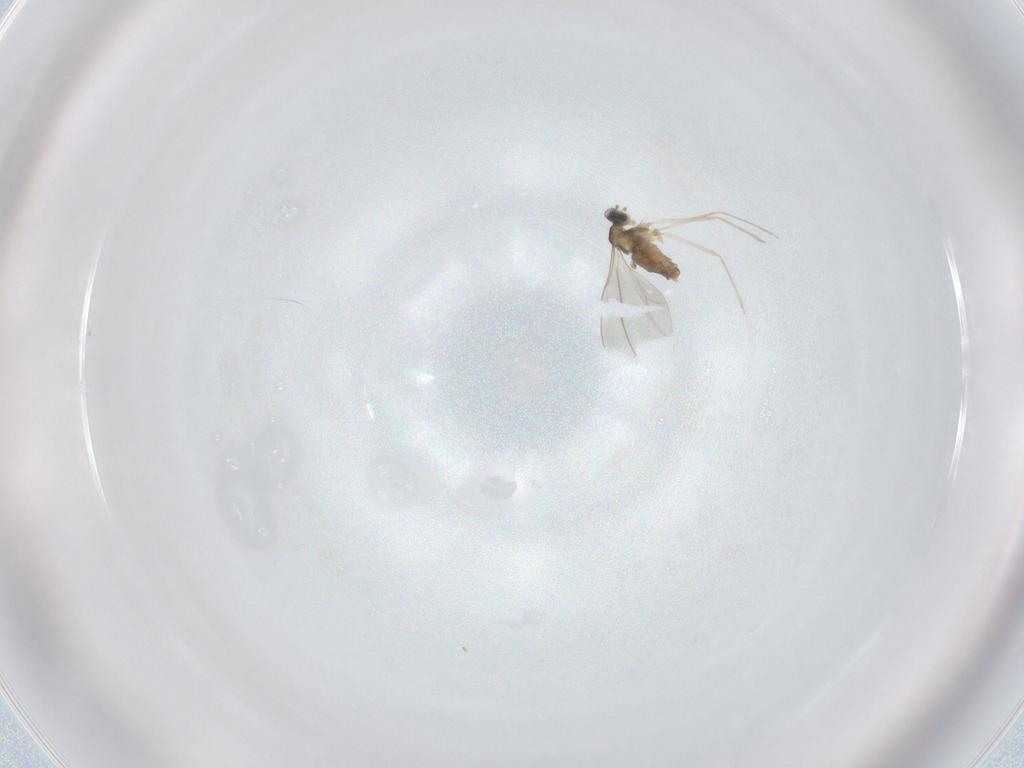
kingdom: Animalia
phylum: Arthropoda
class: Insecta
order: Diptera
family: Cecidomyiidae
